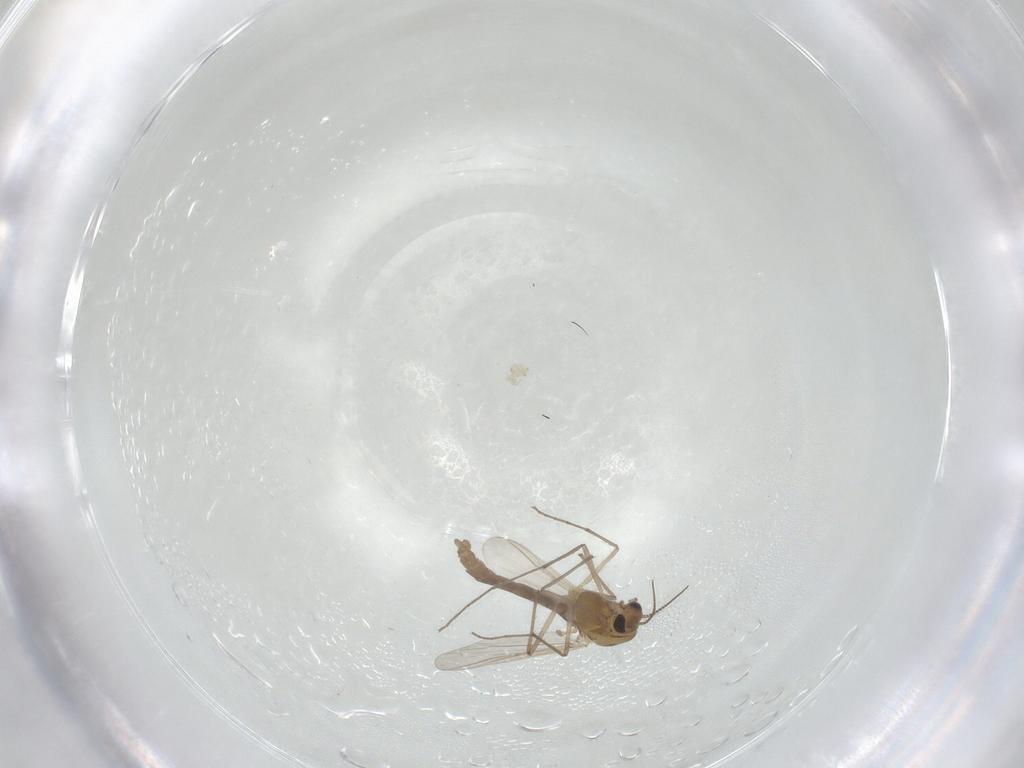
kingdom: Animalia
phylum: Arthropoda
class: Insecta
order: Diptera
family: Chironomidae
